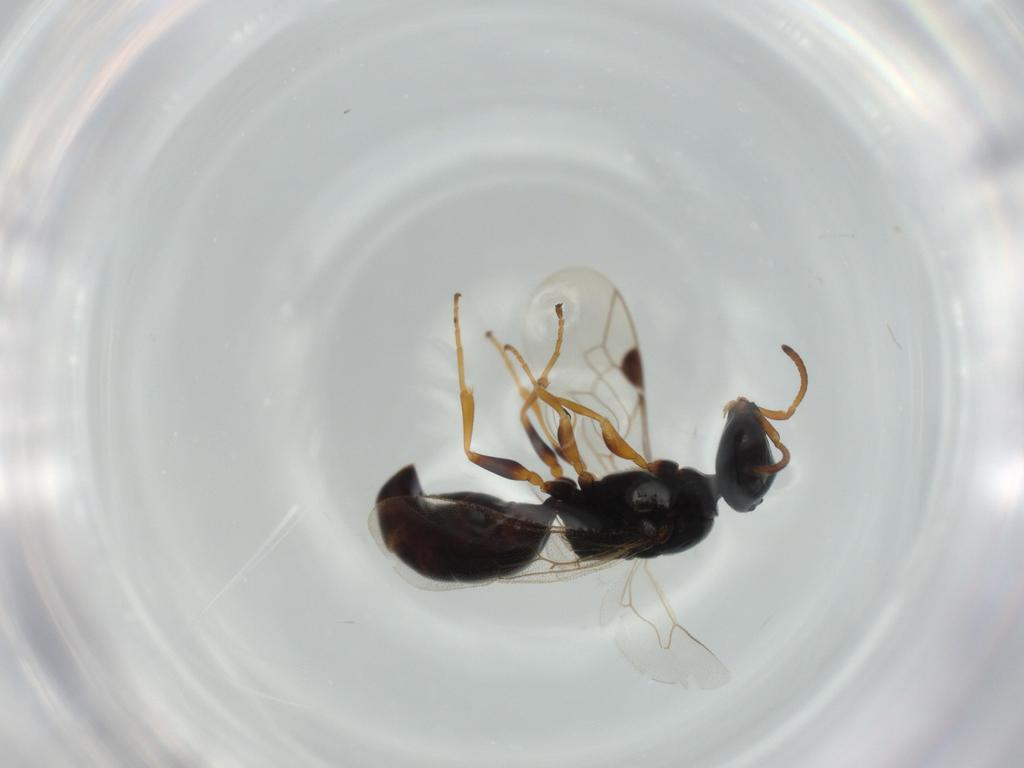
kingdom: Animalia
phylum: Arthropoda
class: Insecta
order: Hymenoptera
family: Pemphredonidae
